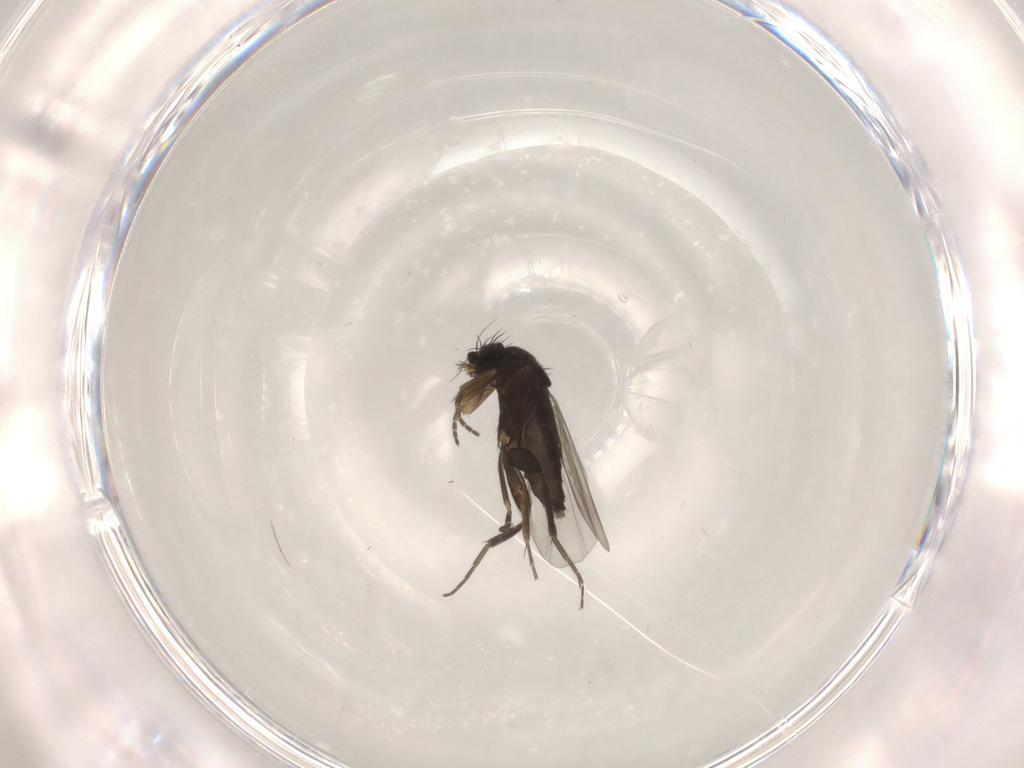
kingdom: Animalia
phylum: Arthropoda
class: Insecta
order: Diptera
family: Phoridae
